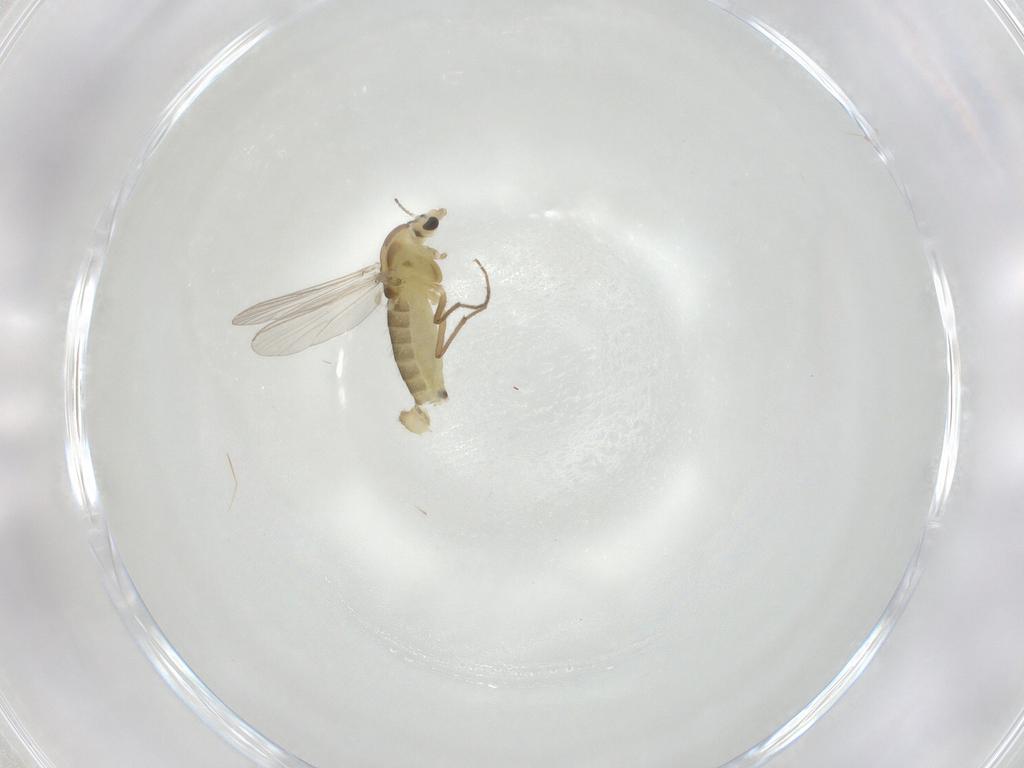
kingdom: Animalia
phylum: Arthropoda
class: Insecta
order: Diptera
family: Chironomidae
